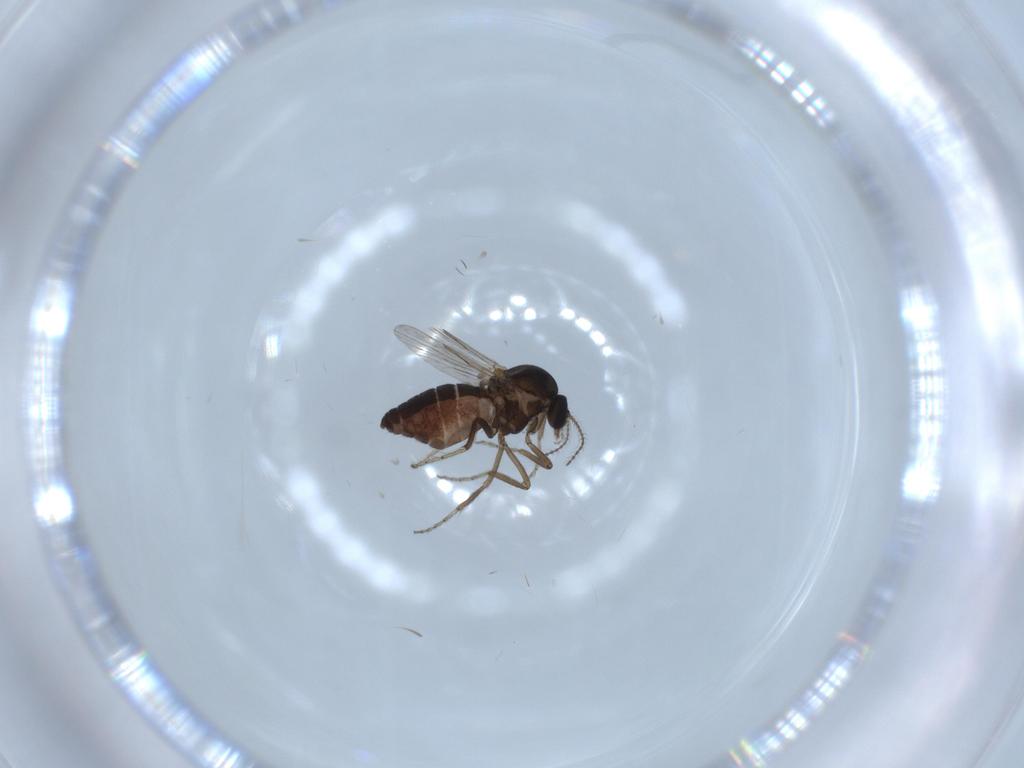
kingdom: Animalia
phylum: Arthropoda
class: Insecta
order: Diptera
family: Ceratopogonidae
